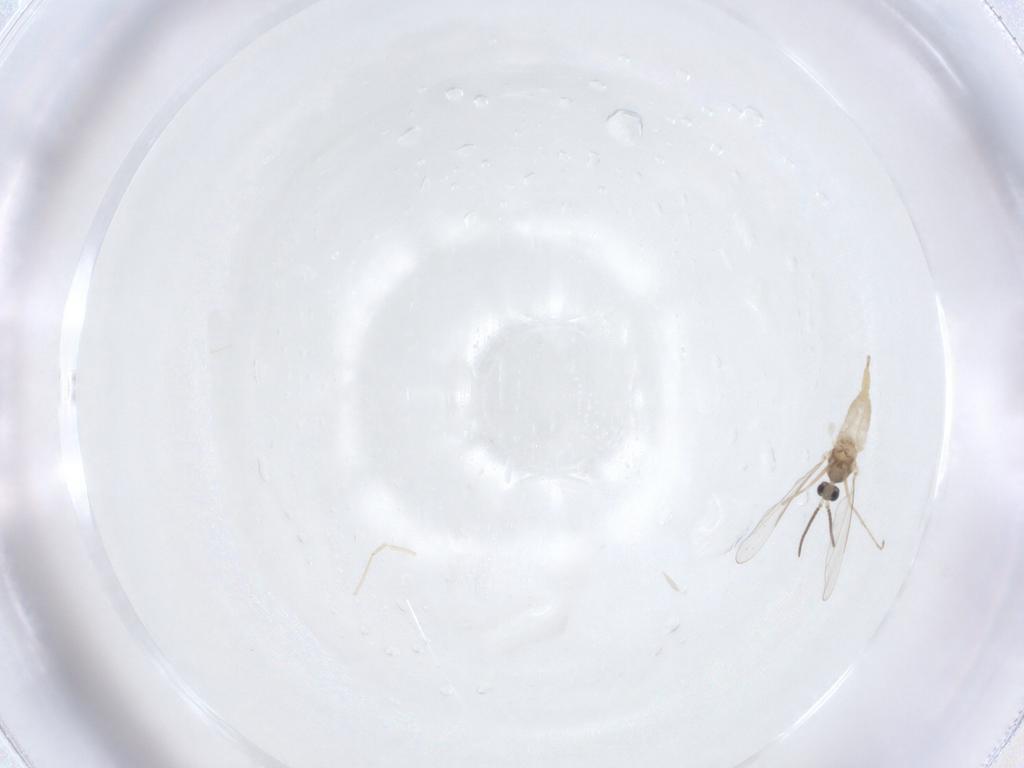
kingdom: Animalia
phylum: Arthropoda
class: Insecta
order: Diptera
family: Cecidomyiidae
